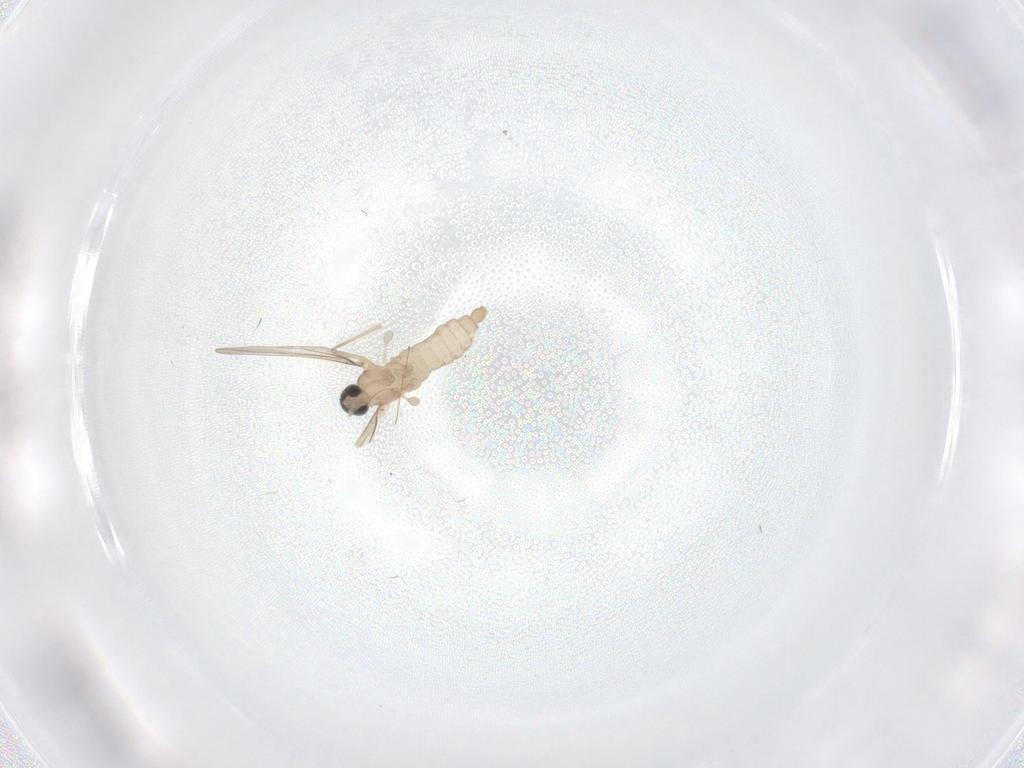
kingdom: Animalia
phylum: Arthropoda
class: Insecta
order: Diptera
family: Cecidomyiidae
